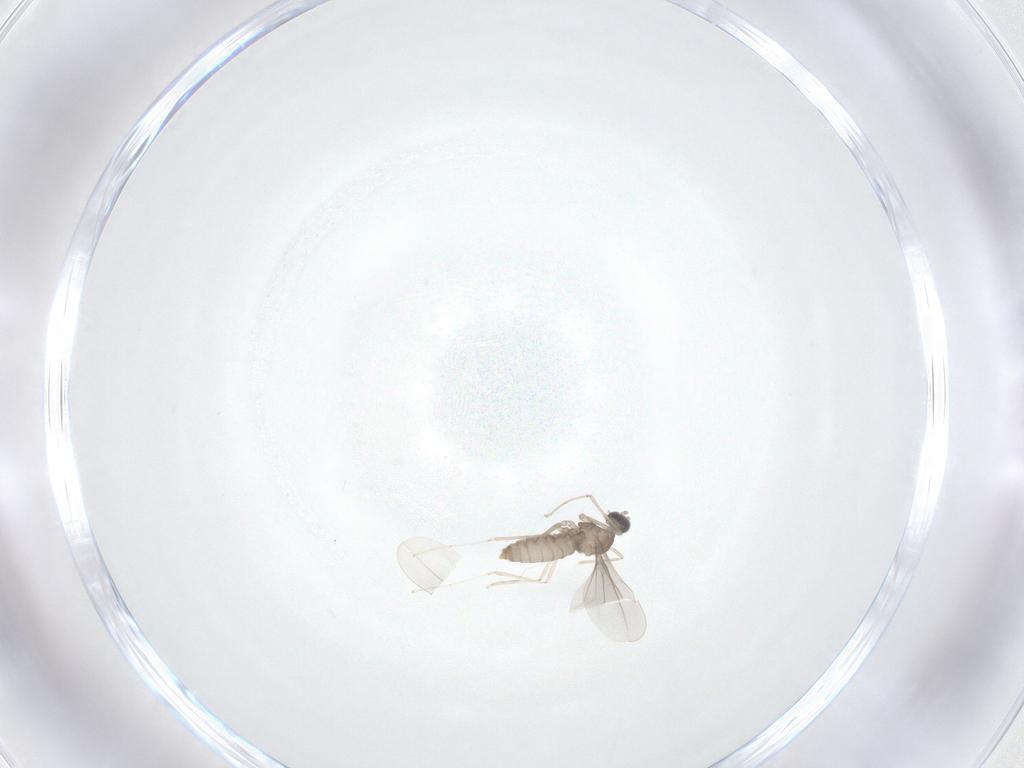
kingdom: Animalia
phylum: Arthropoda
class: Insecta
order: Diptera
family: Cecidomyiidae
